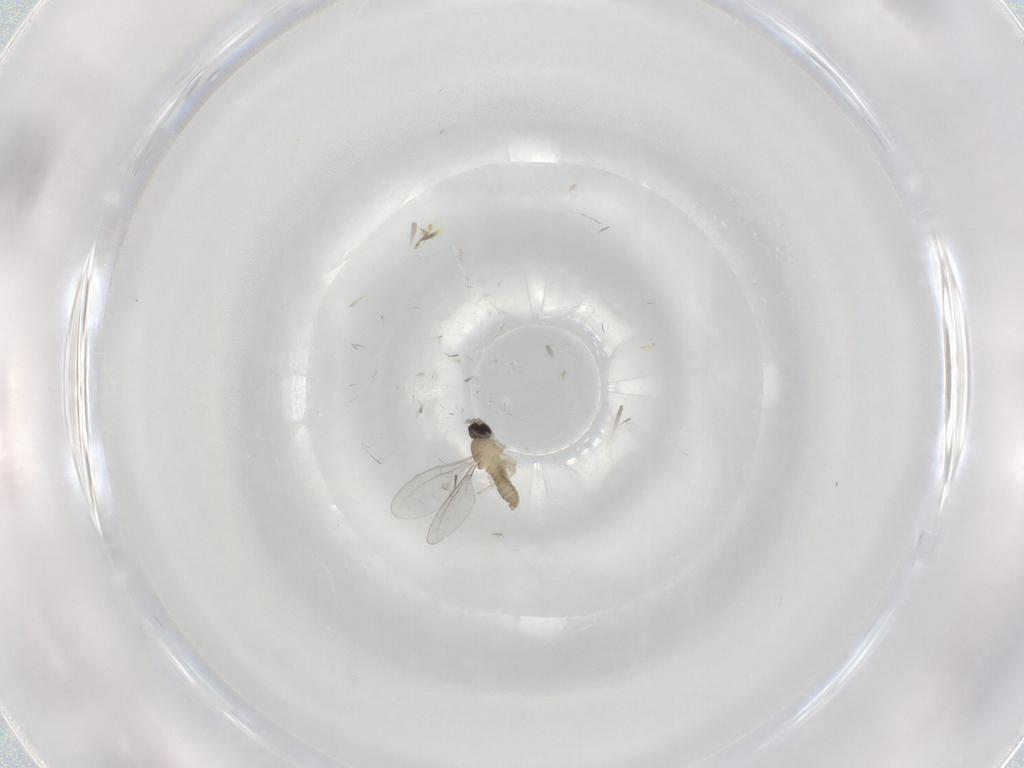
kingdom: Animalia
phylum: Arthropoda
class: Insecta
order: Diptera
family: Cecidomyiidae
